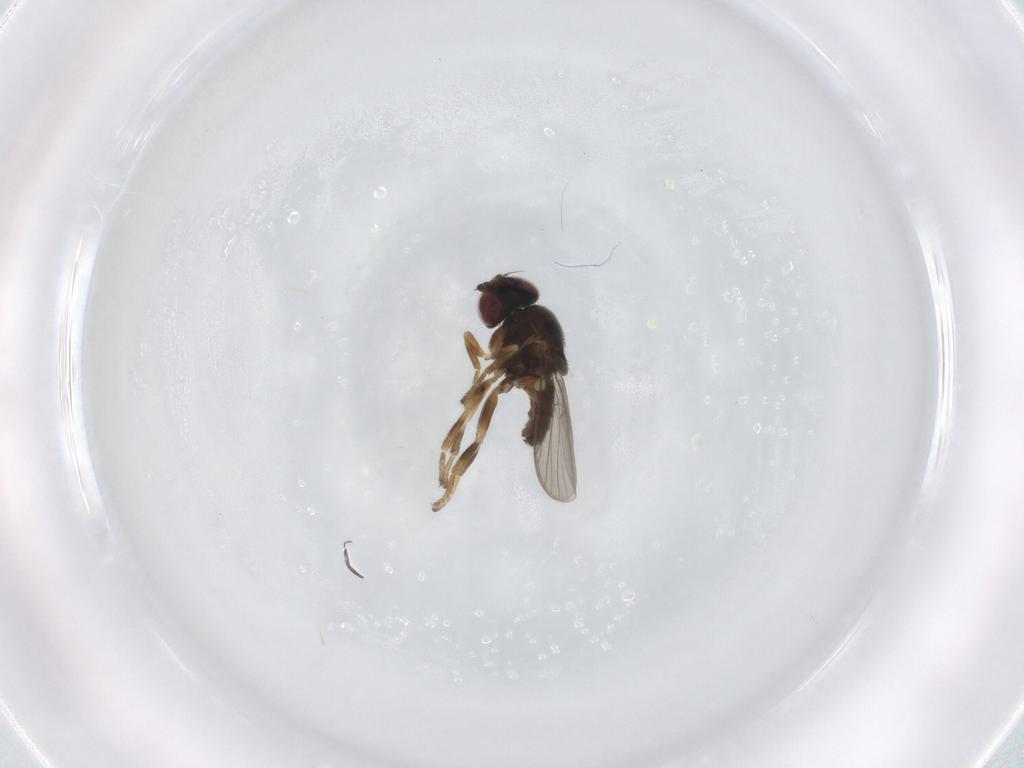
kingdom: Animalia
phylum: Arthropoda
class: Insecta
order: Diptera
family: Chloropidae
